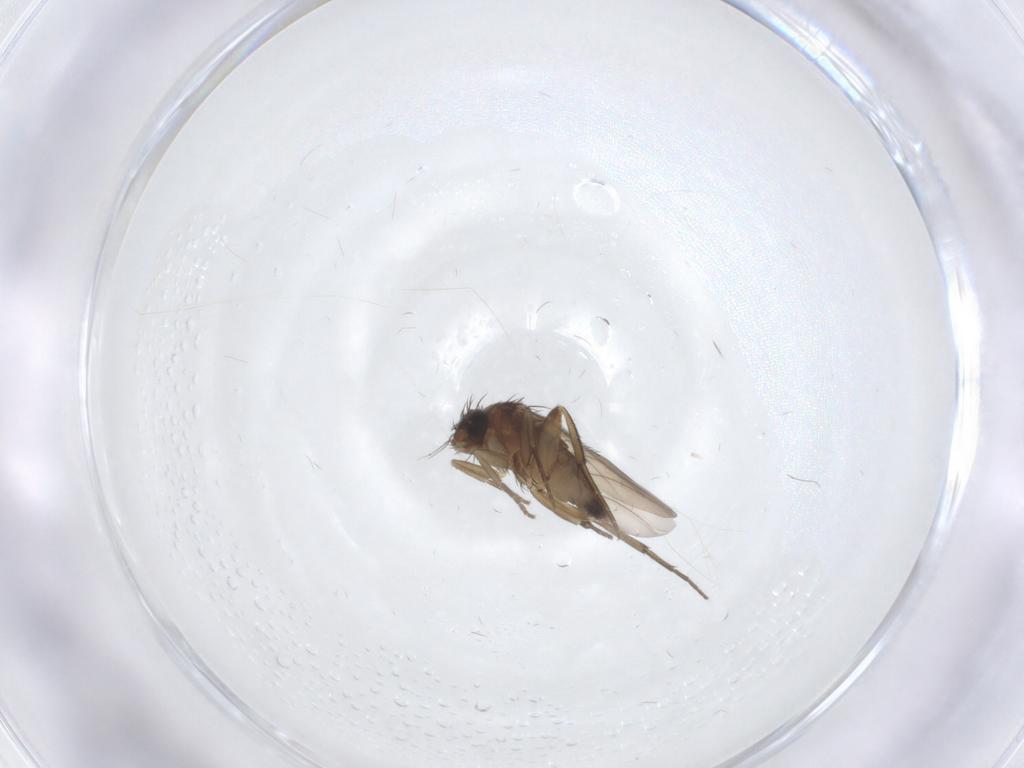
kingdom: Animalia
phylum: Arthropoda
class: Insecta
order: Diptera
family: Phoridae
